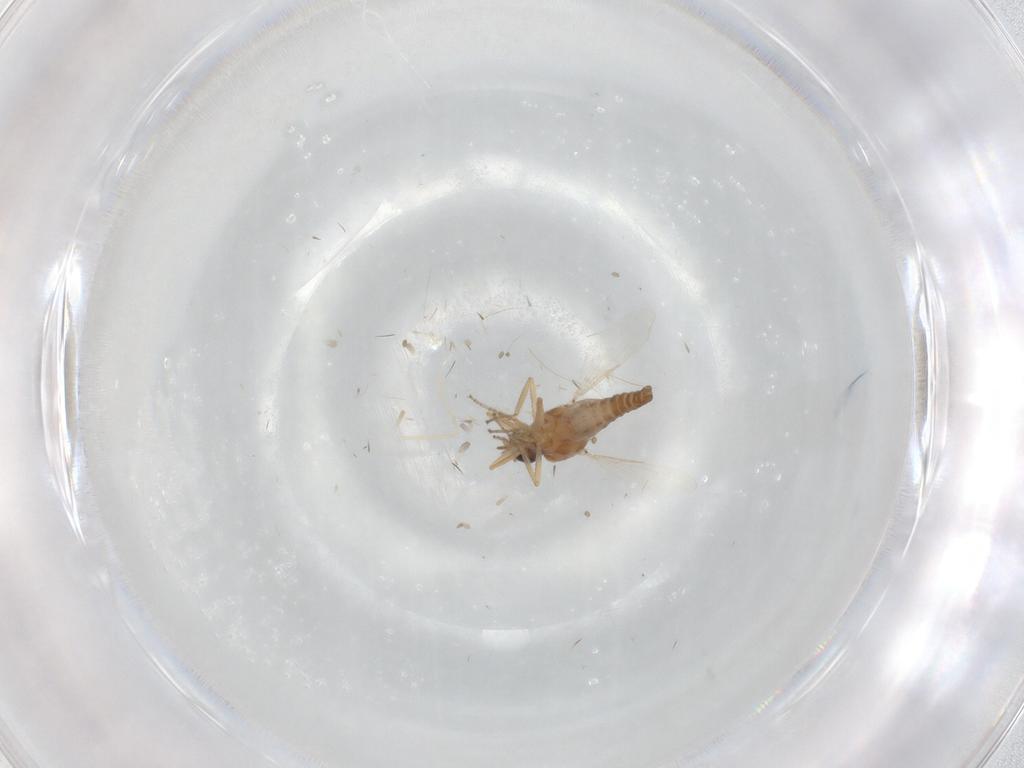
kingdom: Animalia
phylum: Arthropoda
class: Insecta
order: Diptera
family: Ceratopogonidae
